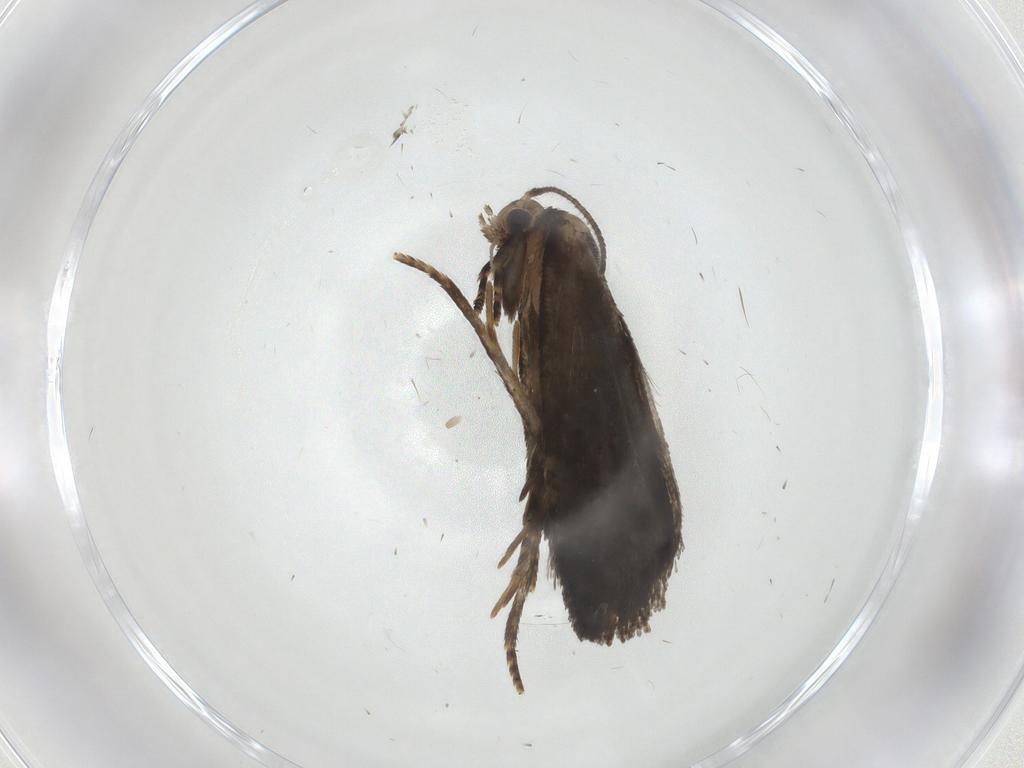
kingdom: Animalia
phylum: Arthropoda
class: Insecta
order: Lepidoptera
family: Tortricidae
